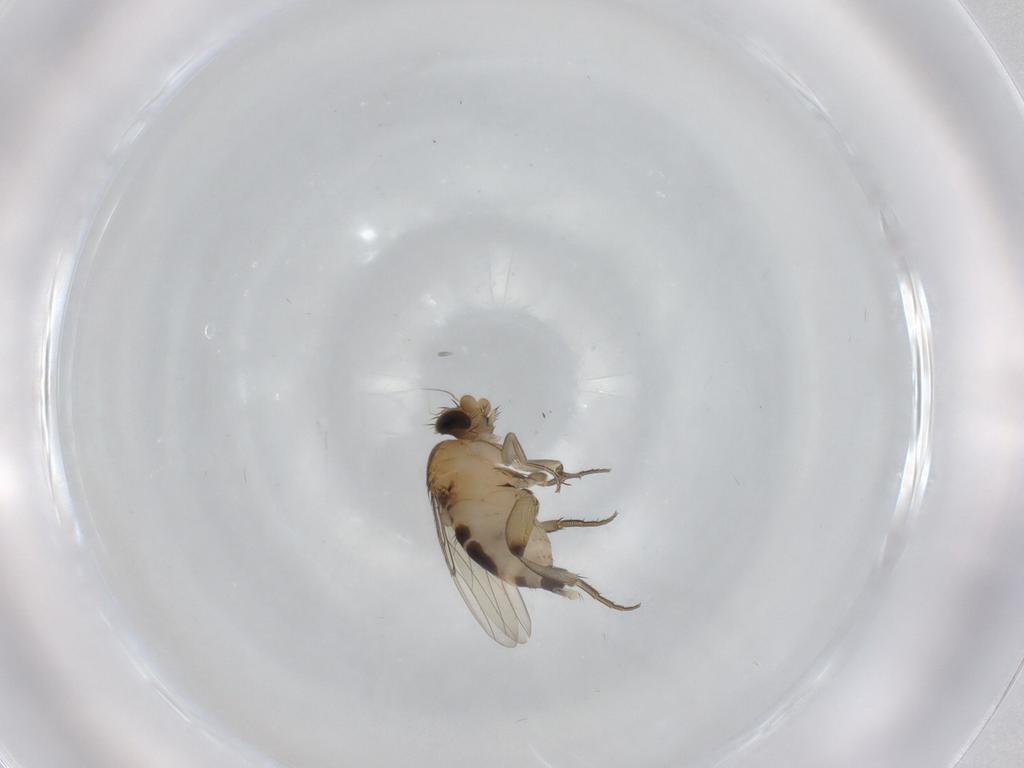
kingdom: Animalia
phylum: Arthropoda
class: Insecta
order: Diptera
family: Phoridae
